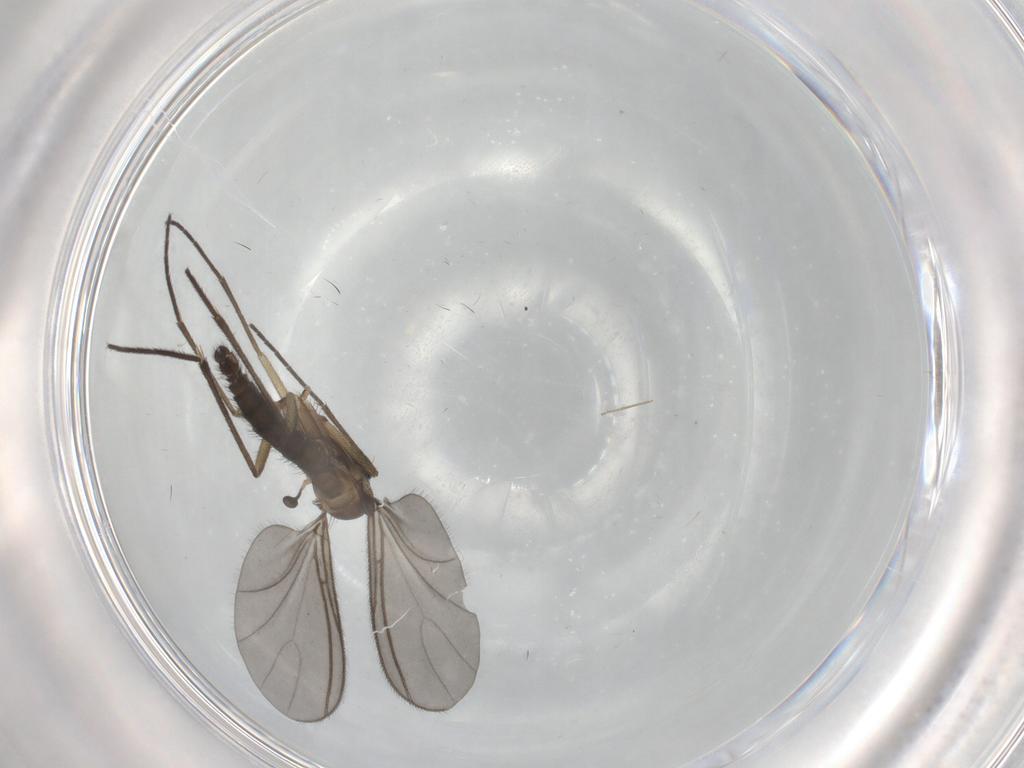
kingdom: Animalia
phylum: Arthropoda
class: Insecta
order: Diptera
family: Sciaridae
